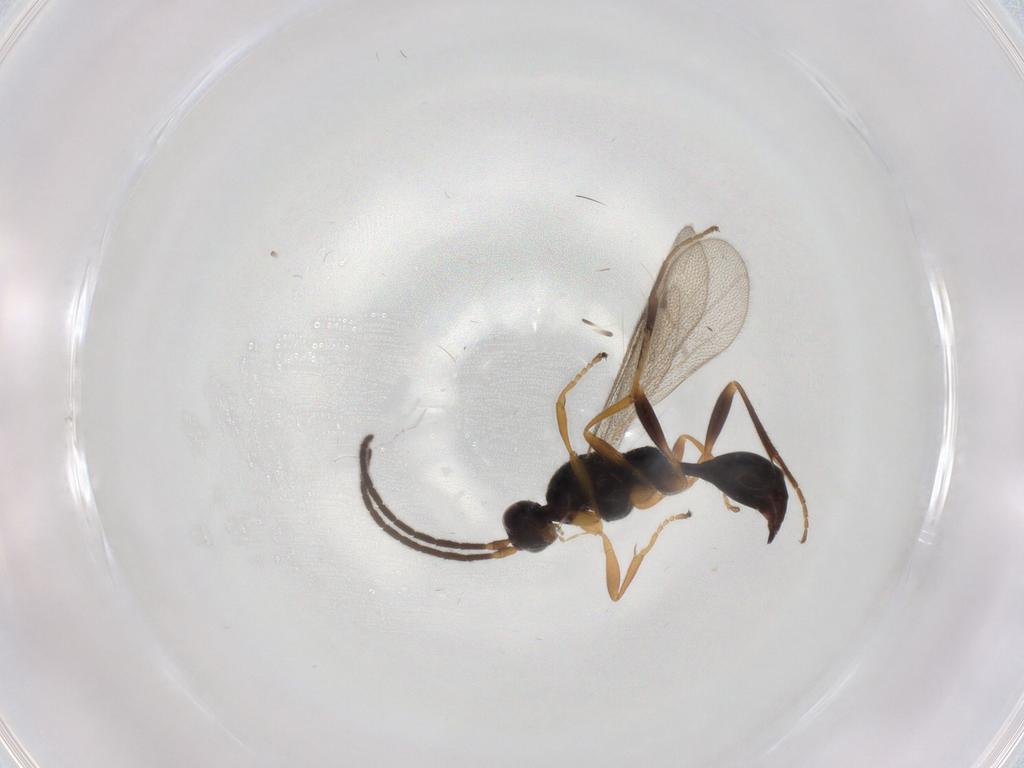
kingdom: Animalia
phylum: Arthropoda
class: Insecta
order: Hymenoptera
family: Proctotrupidae
